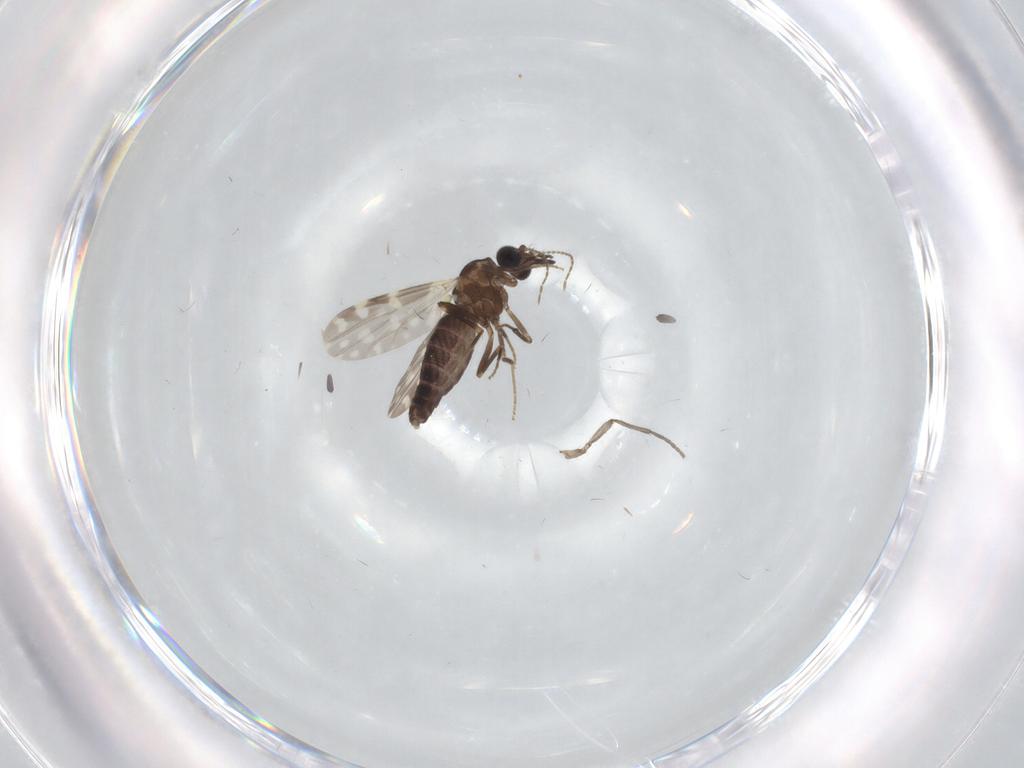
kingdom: Animalia
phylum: Arthropoda
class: Insecta
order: Diptera
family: Ceratopogonidae
